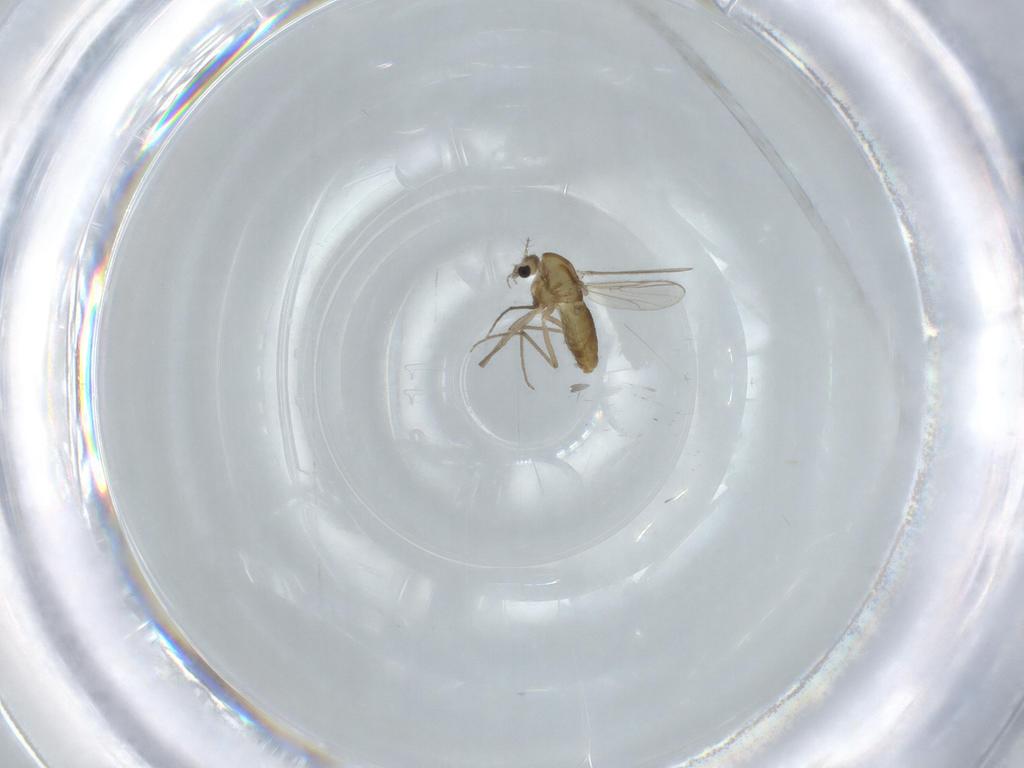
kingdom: Animalia
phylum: Arthropoda
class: Insecta
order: Diptera
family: Chironomidae
